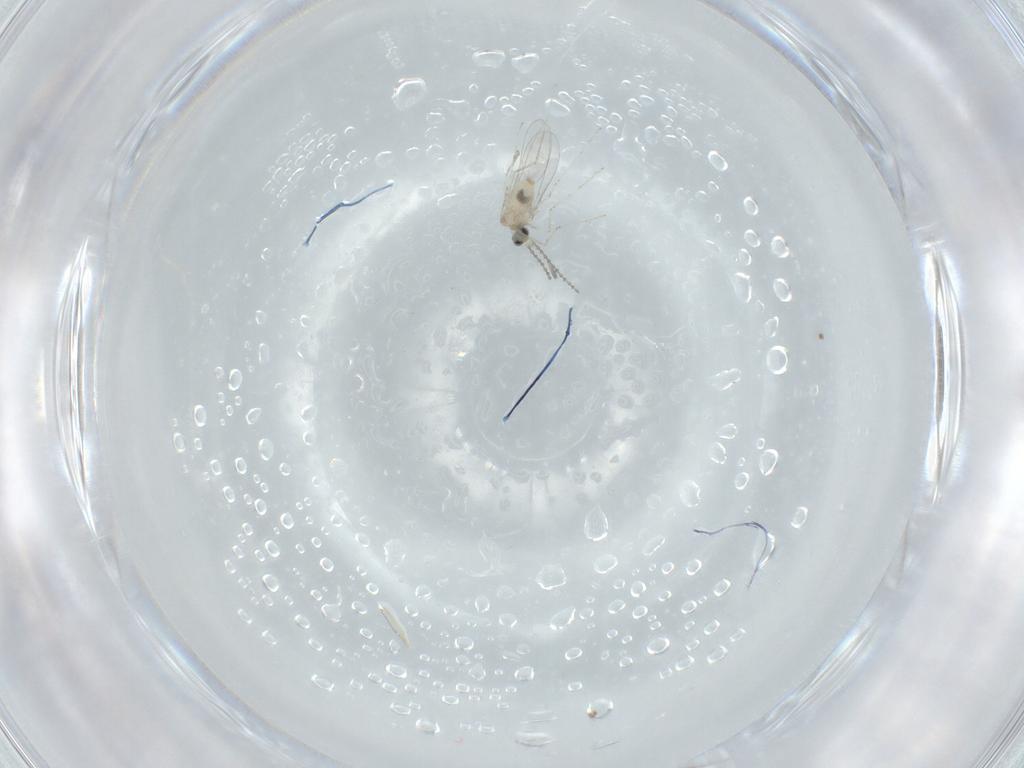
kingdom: Animalia
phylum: Arthropoda
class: Insecta
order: Diptera
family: Cecidomyiidae
